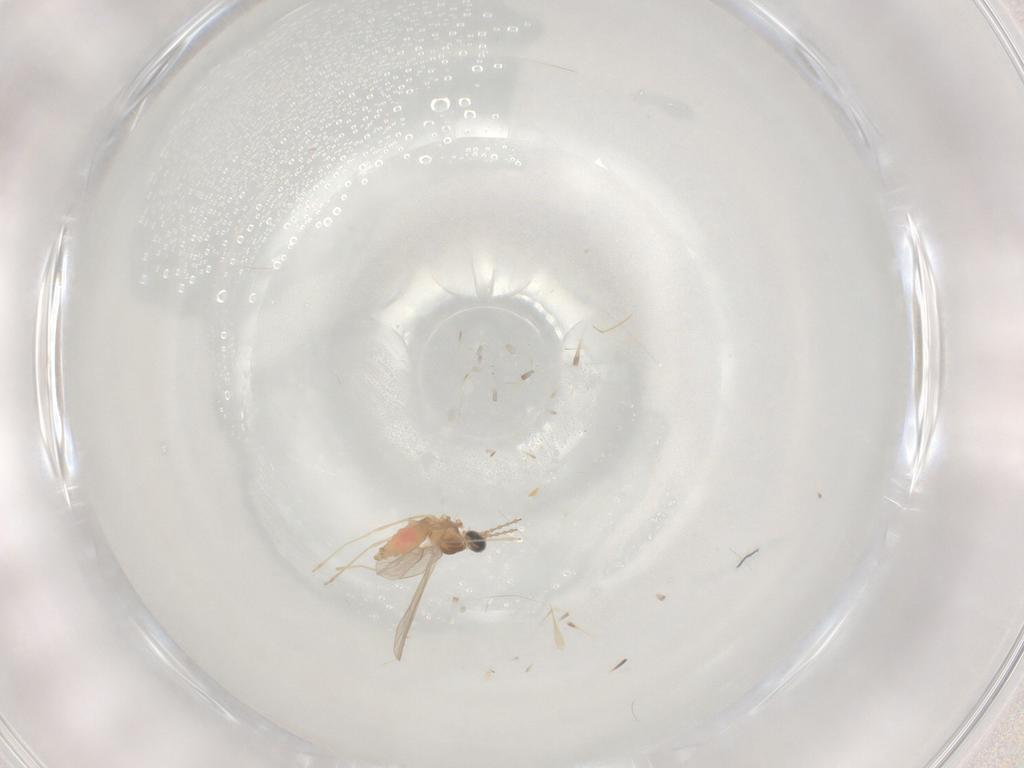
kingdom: Animalia
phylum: Arthropoda
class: Insecta
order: Diptera
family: Cecidomyiidae
